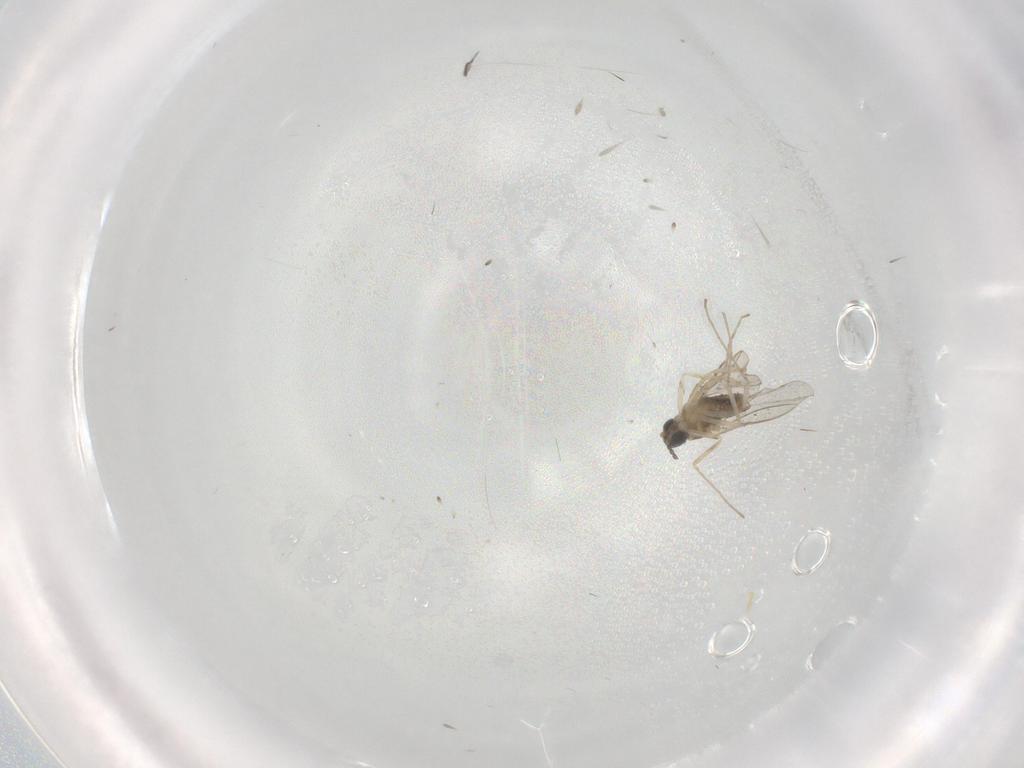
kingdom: Animalia
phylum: Arthropoda
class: Insecta
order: Diptera
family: Cecidomyiidae
